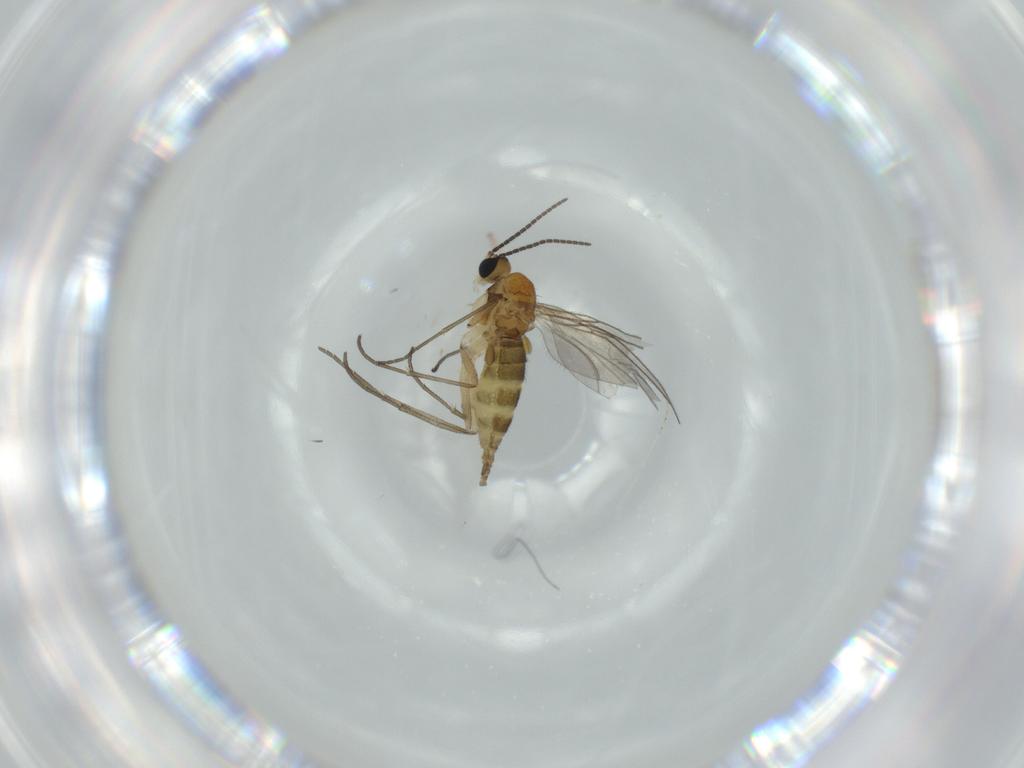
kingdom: Animalia
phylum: Arthropoda
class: Insecta
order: Diptera
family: Sciaridae
